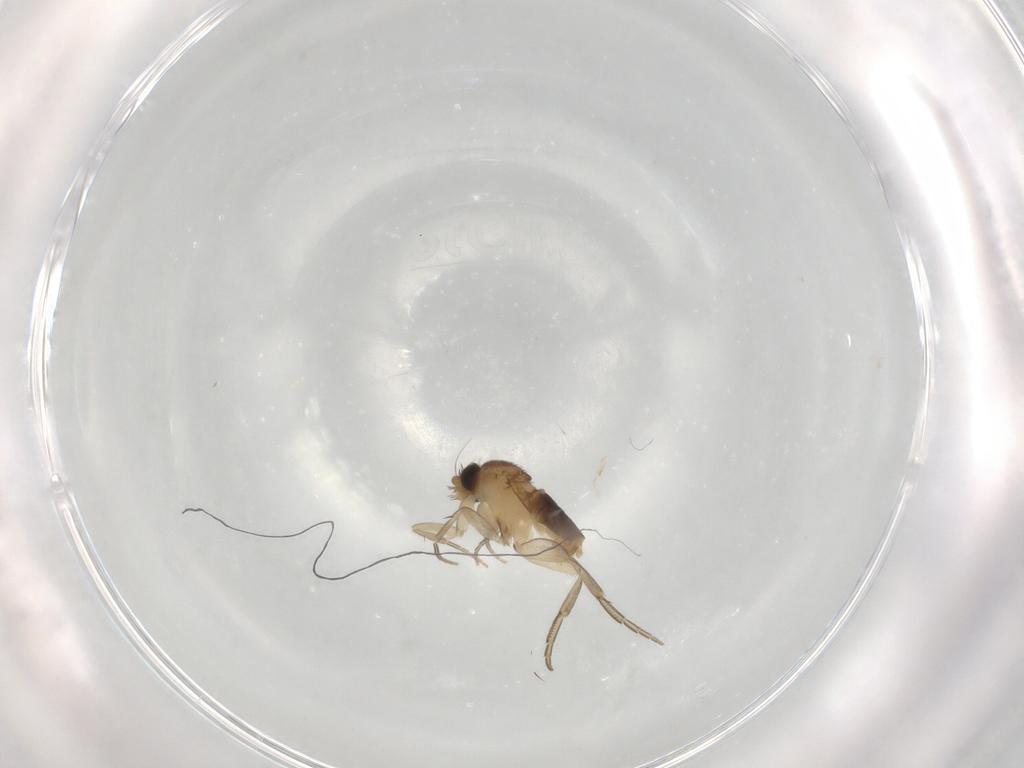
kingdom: Animalia
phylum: Arthropoda
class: Insecta
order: Diptera
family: Phoridae
